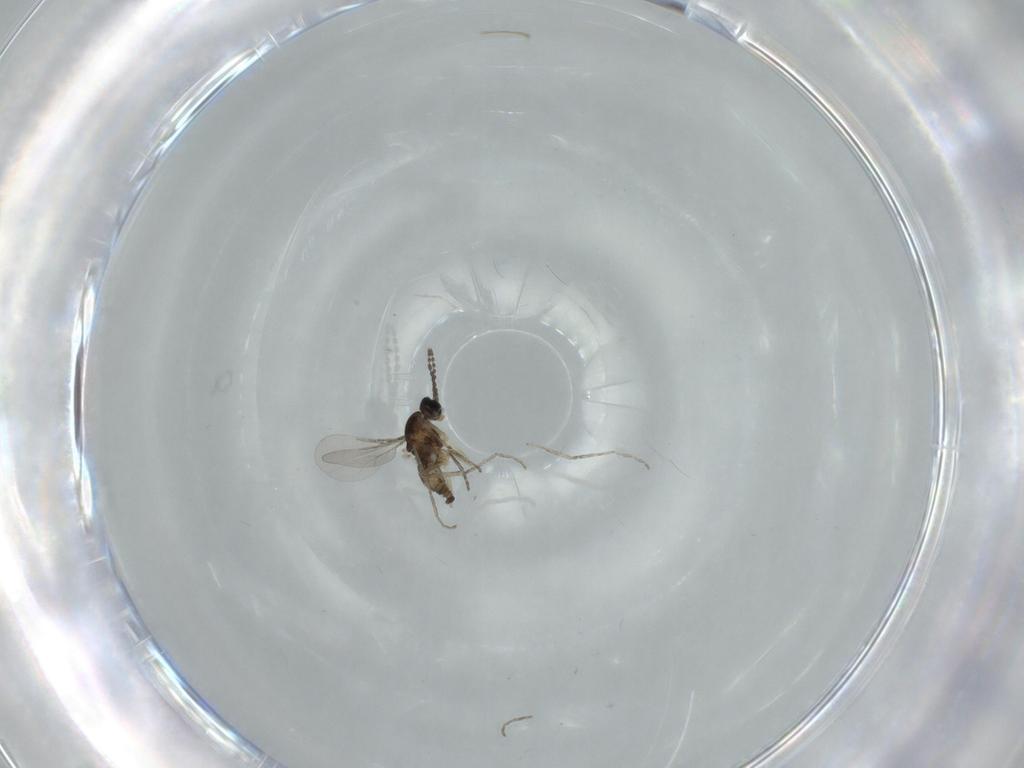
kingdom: Animalia
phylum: Arthropoda
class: Insecta
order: Diptera
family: Cecidomyiidae
